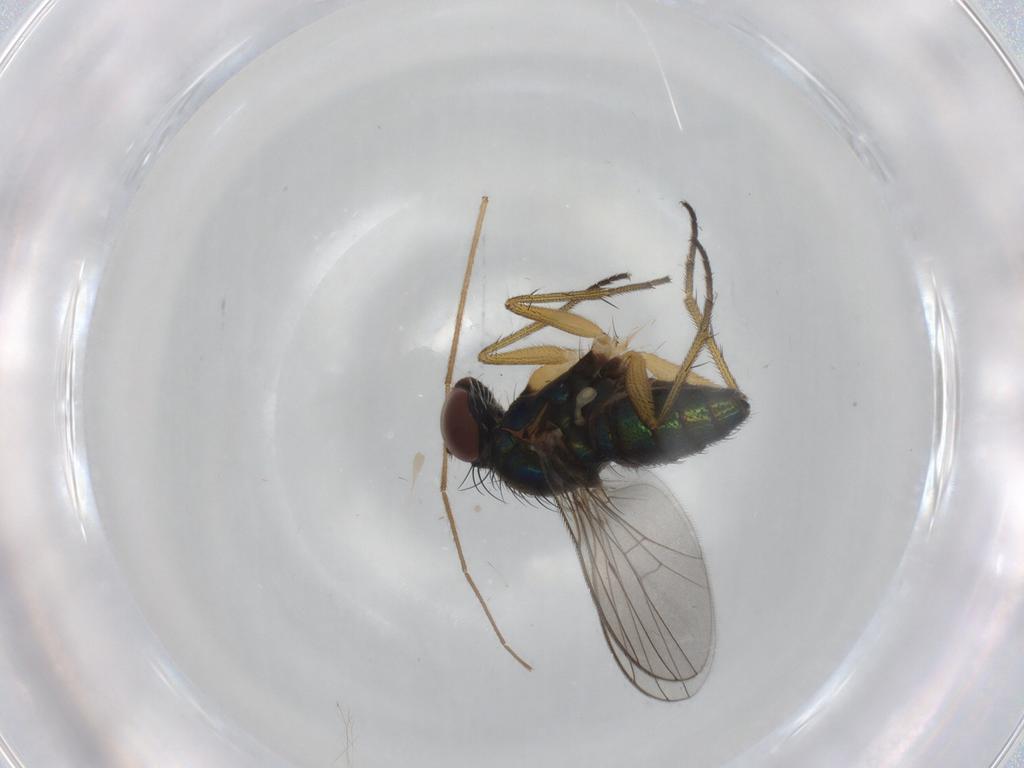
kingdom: Animalia
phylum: Arthropoda
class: Insecta
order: Diptera
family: Dolichopodidae
